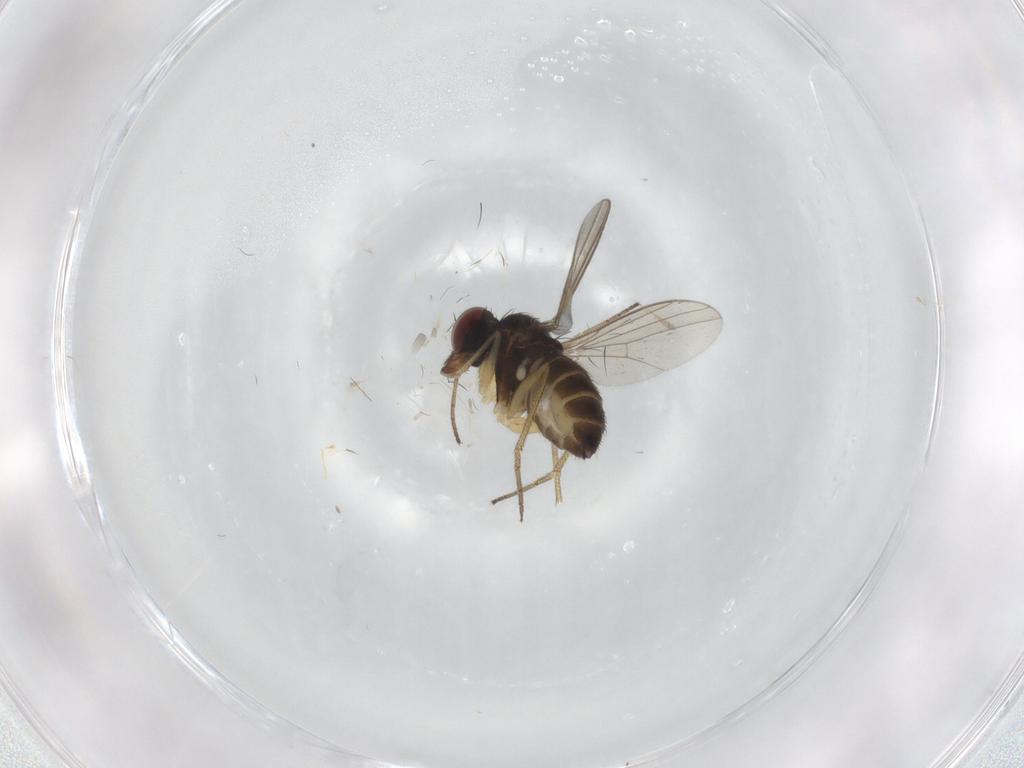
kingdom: Animalia
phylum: Arthropoda
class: Insecta
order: Diptera
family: Dolichopodidae
